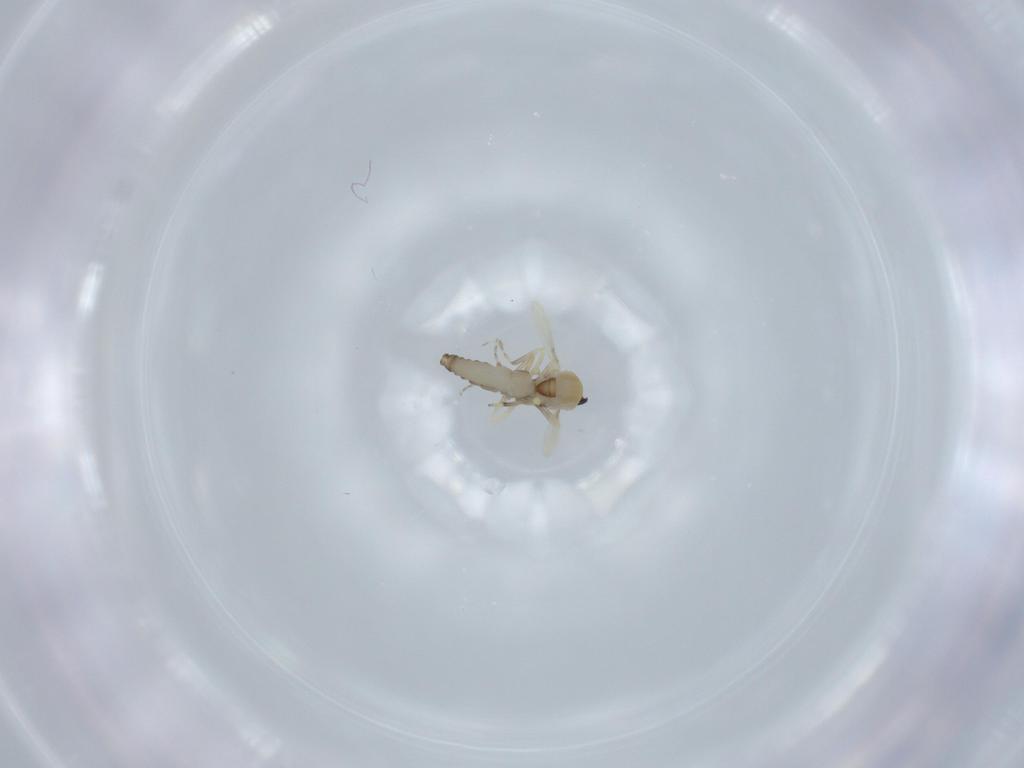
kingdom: Animalia
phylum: Arthropoda
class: Insecta
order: Diptera
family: Ceratopogonidae
